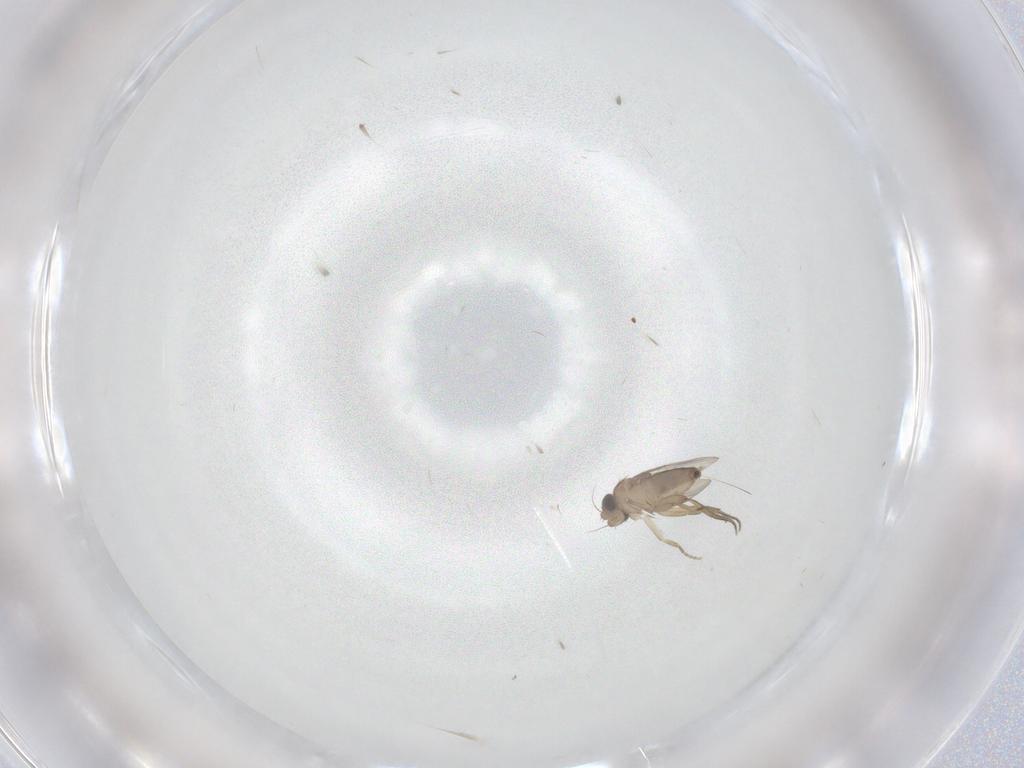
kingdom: Animalia
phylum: Arthropoda
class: Insecta
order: Diptera
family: Phoridae
